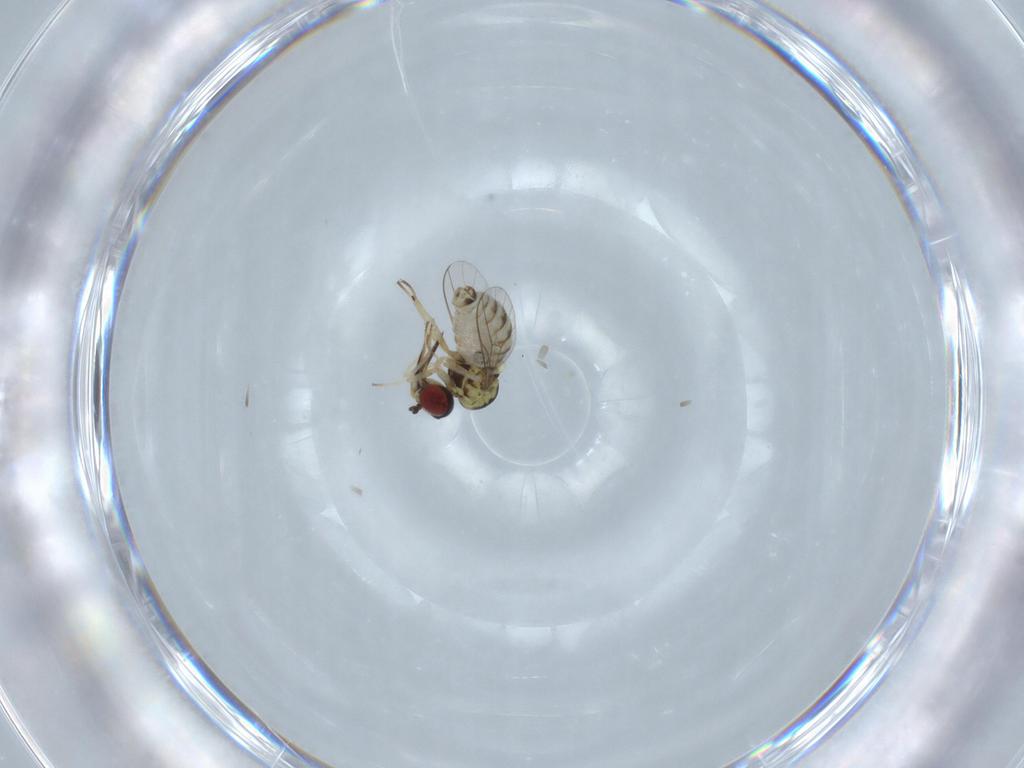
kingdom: Animalia
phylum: Arthropoda
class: Insecta
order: Diptera
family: Bombyliidae
